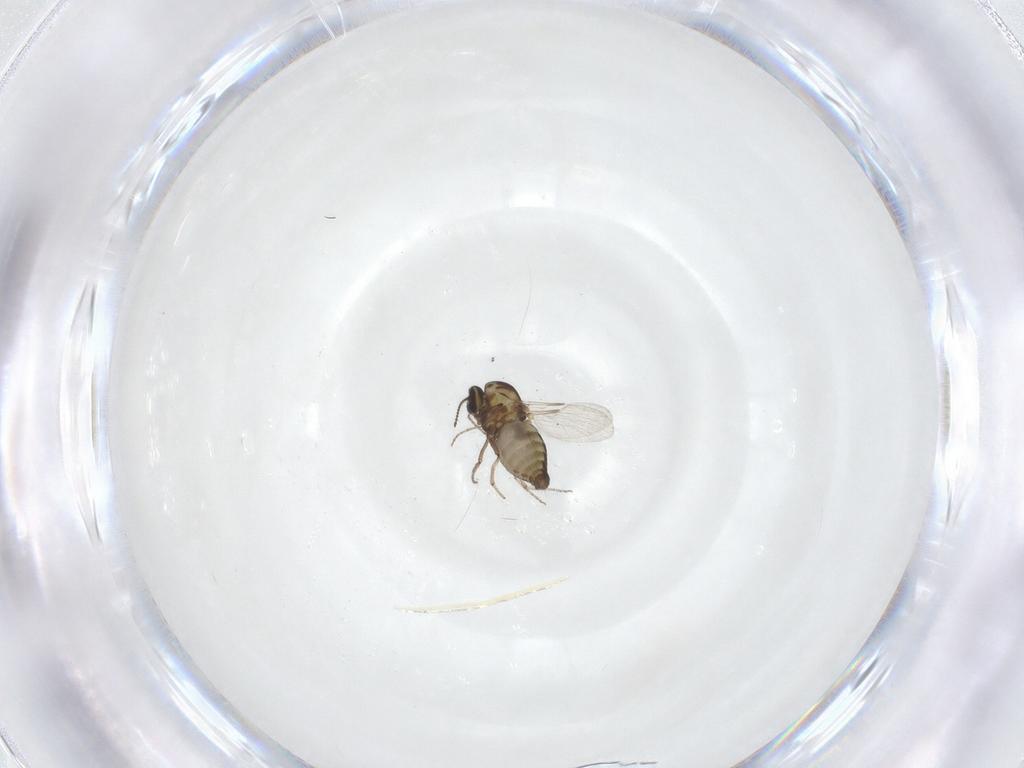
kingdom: Animalia
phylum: Arthropoda
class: Insecta
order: Diptera
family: Ceratopogonidae
